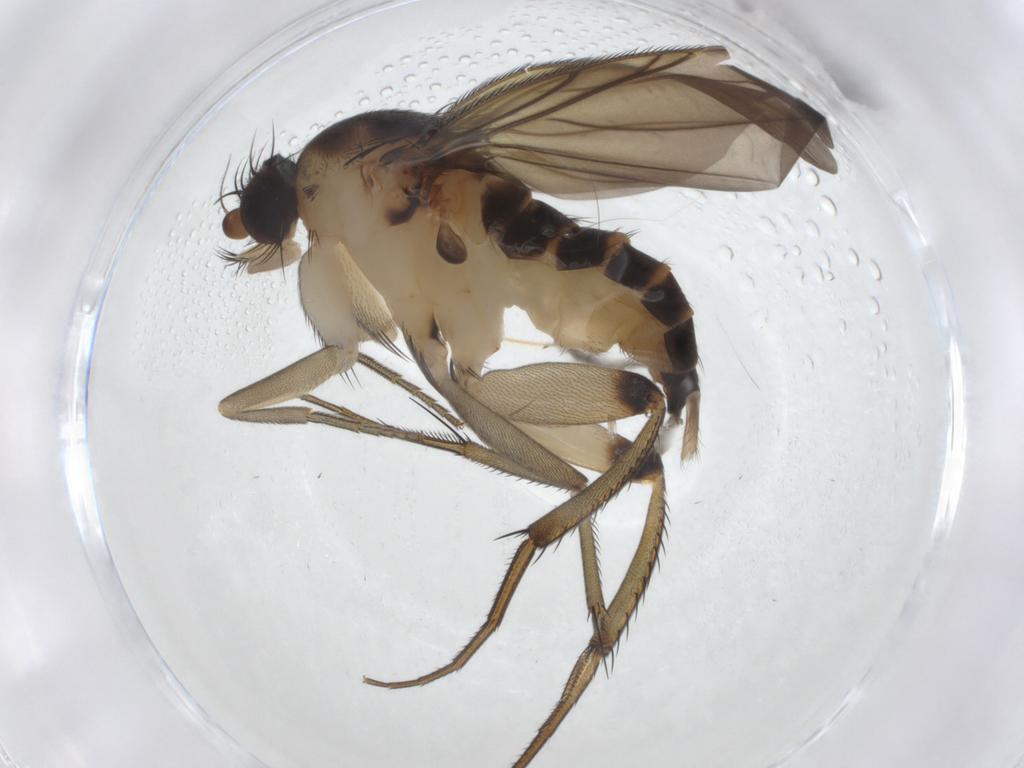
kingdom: Animalia
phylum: Arthropoda
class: Insecta
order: Diptera
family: Phoridae
